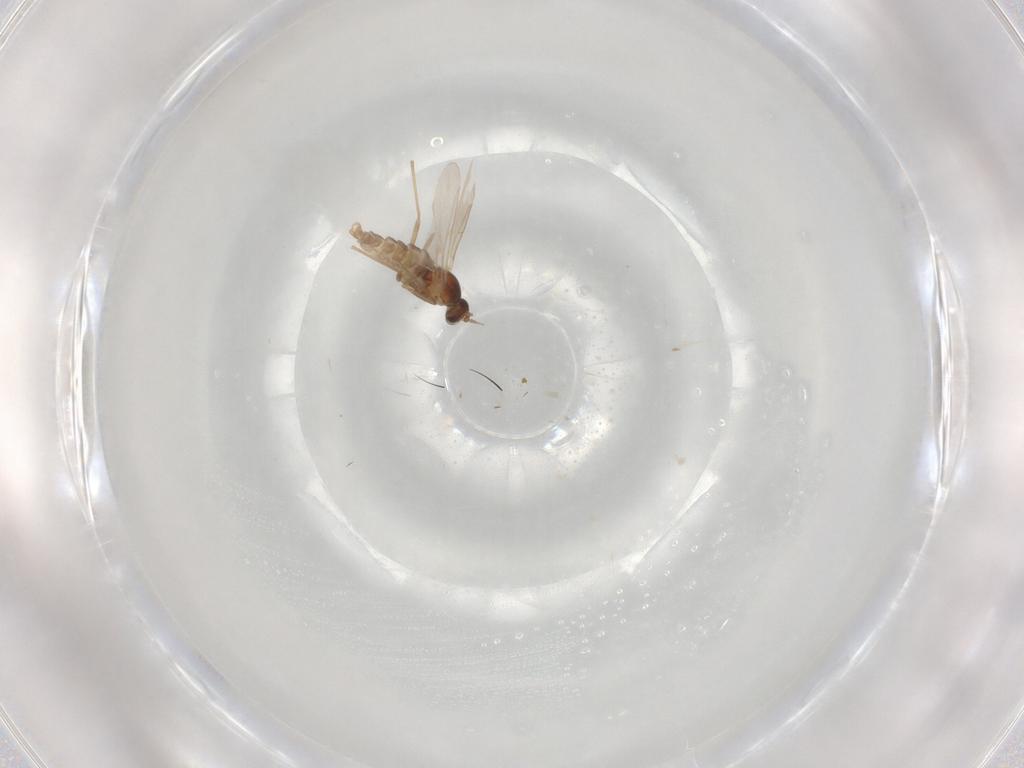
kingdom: Animalia
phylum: Arthropoda
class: Insecta
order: Diptera
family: Cecidomyiidae
